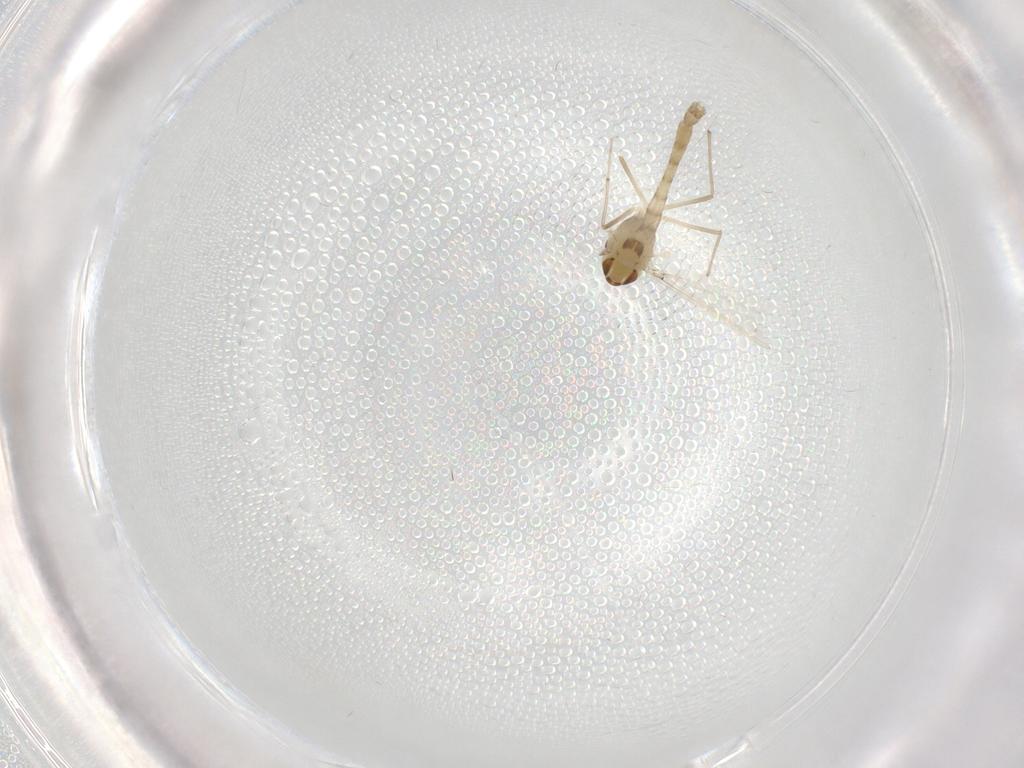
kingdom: Animalia
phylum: Arthropoda
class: Insecta
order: Diptera
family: Chironomidae
